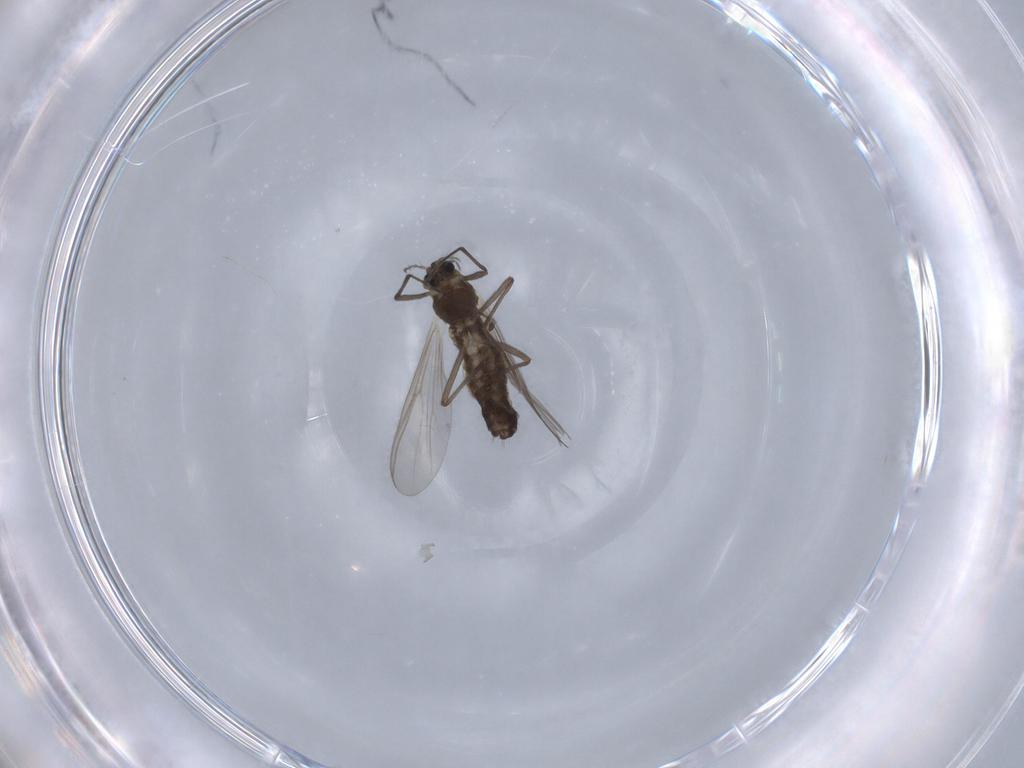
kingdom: Animalia
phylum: Arthropoda
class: Insecta
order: Diptera
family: Chironomidae
